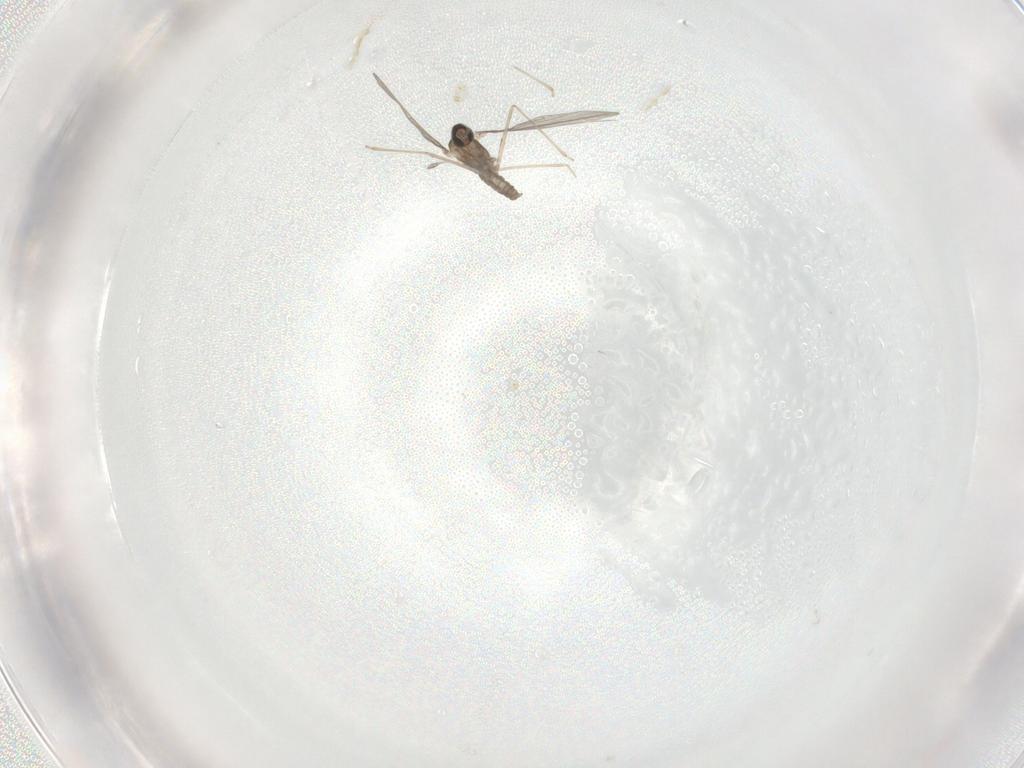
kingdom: Animalia
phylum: Arthropoda
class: Insecta
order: Diptera
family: Cecidomyiidae
